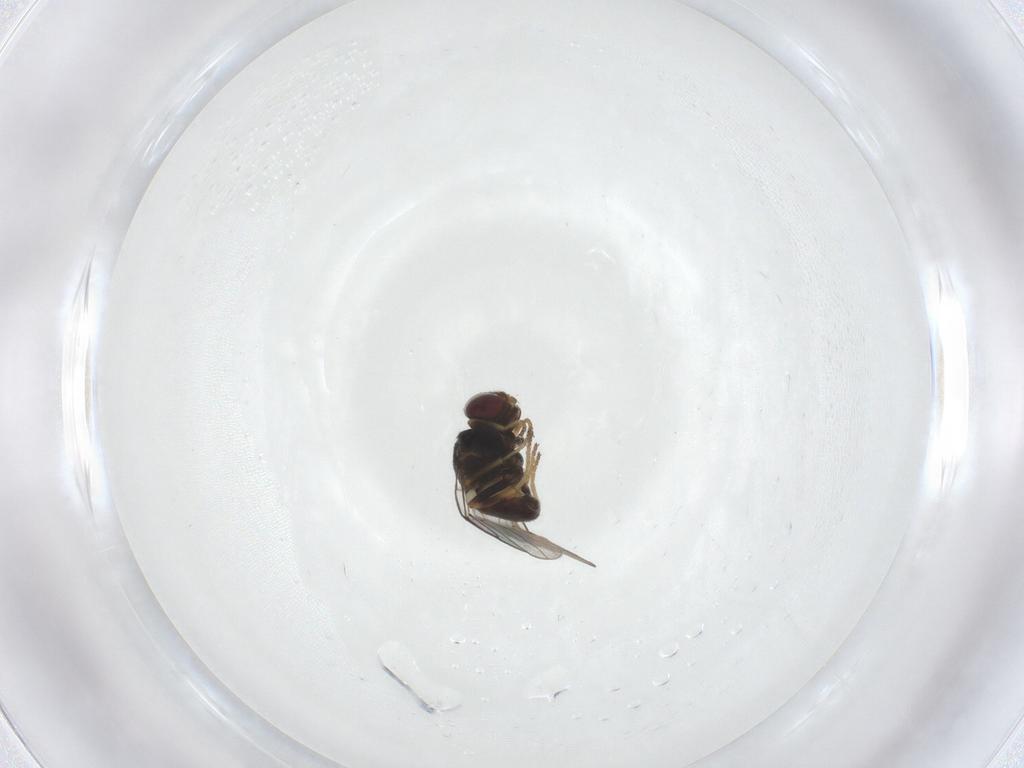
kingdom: Animalia
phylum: Arthropoda
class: Insecta
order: Diptera
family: Chloropidae
